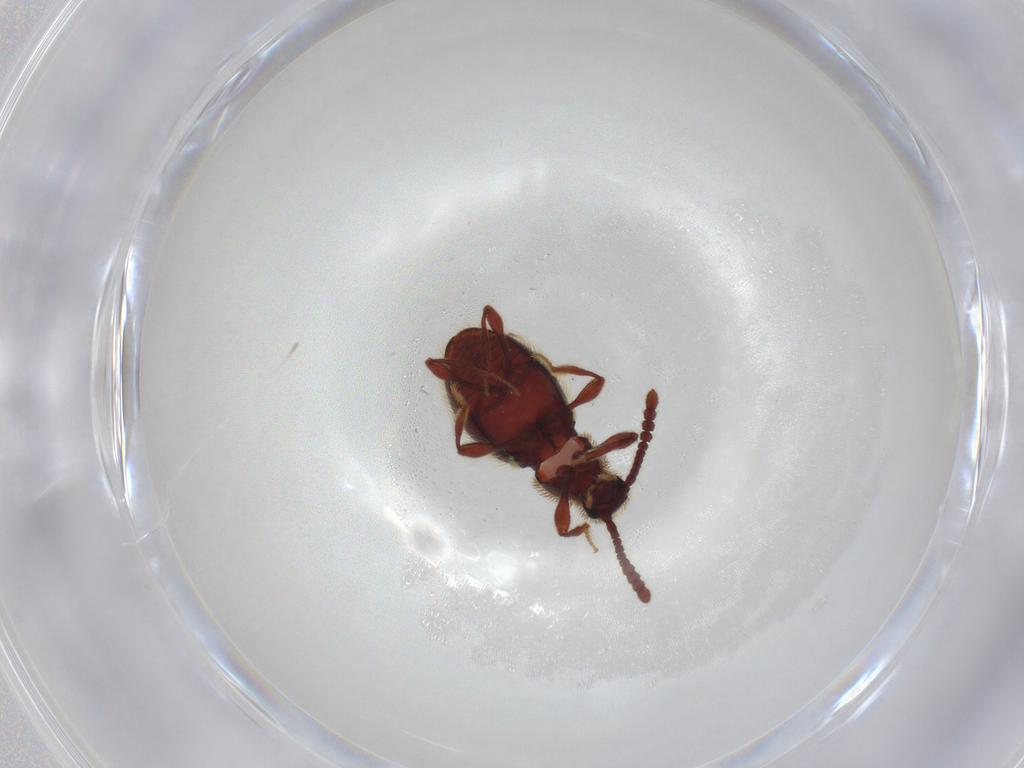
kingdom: Animalia
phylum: Arthropoda
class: Insecta
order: Coleoptera
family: Staphylinidae
